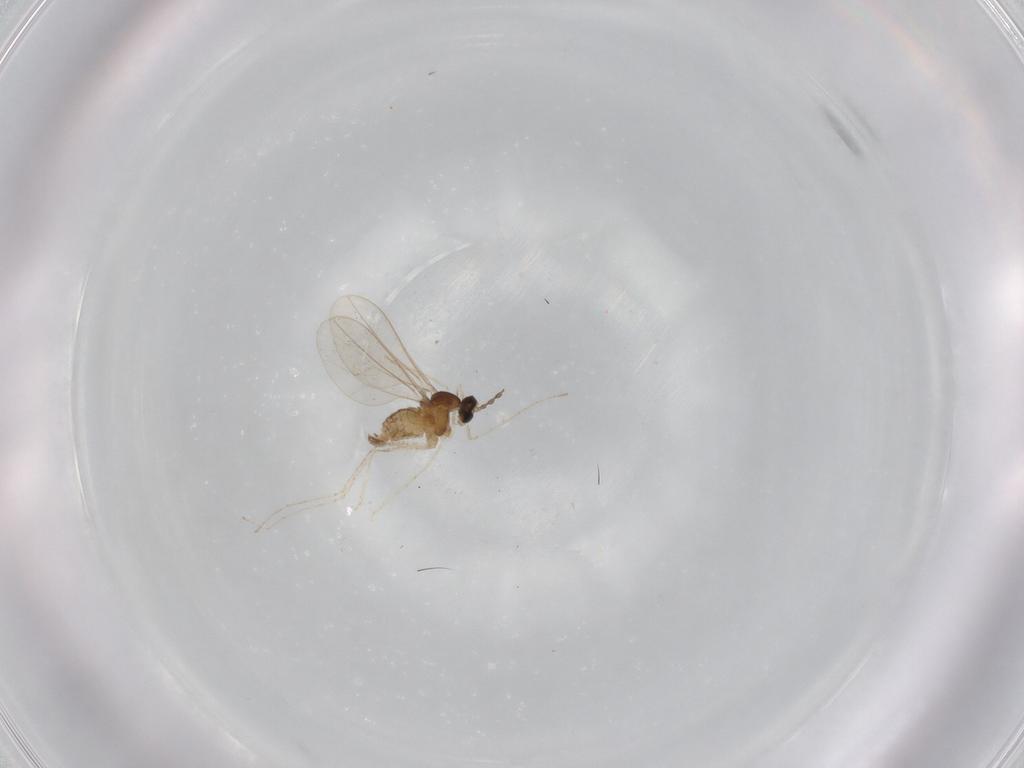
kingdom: Animalia
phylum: Arthropoda
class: Insecta
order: Diptera
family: Cecidomyiidae
